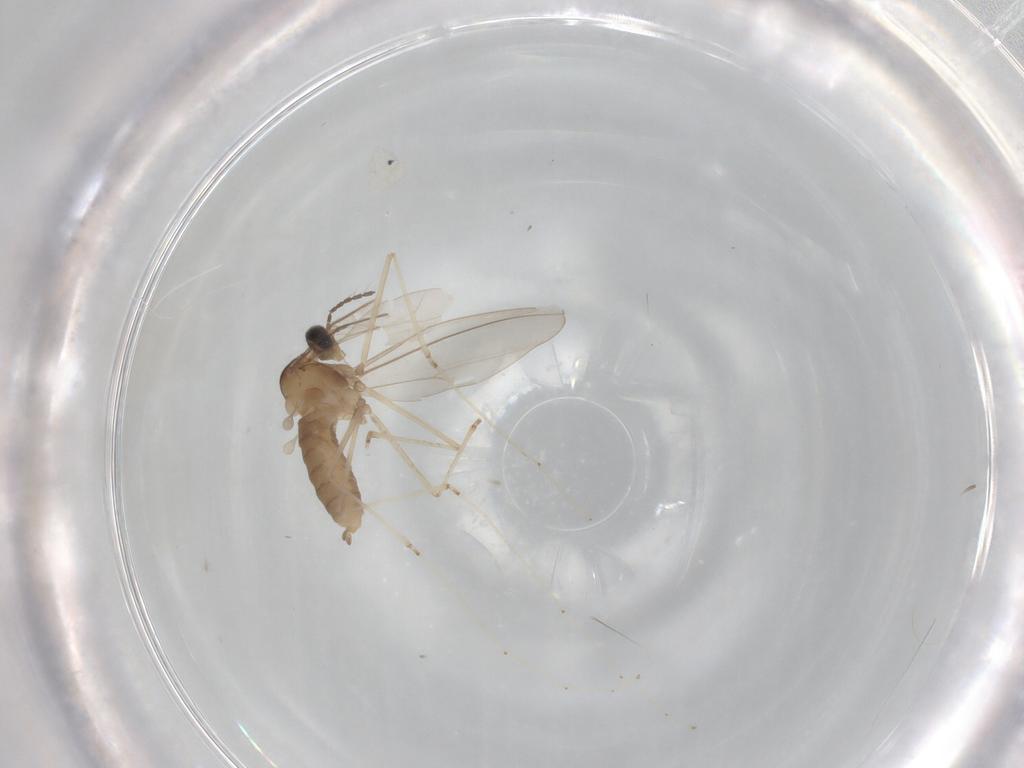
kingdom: Animalia
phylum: Arthropoda
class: Insecta
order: Diptera
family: Cecidomyiidae
